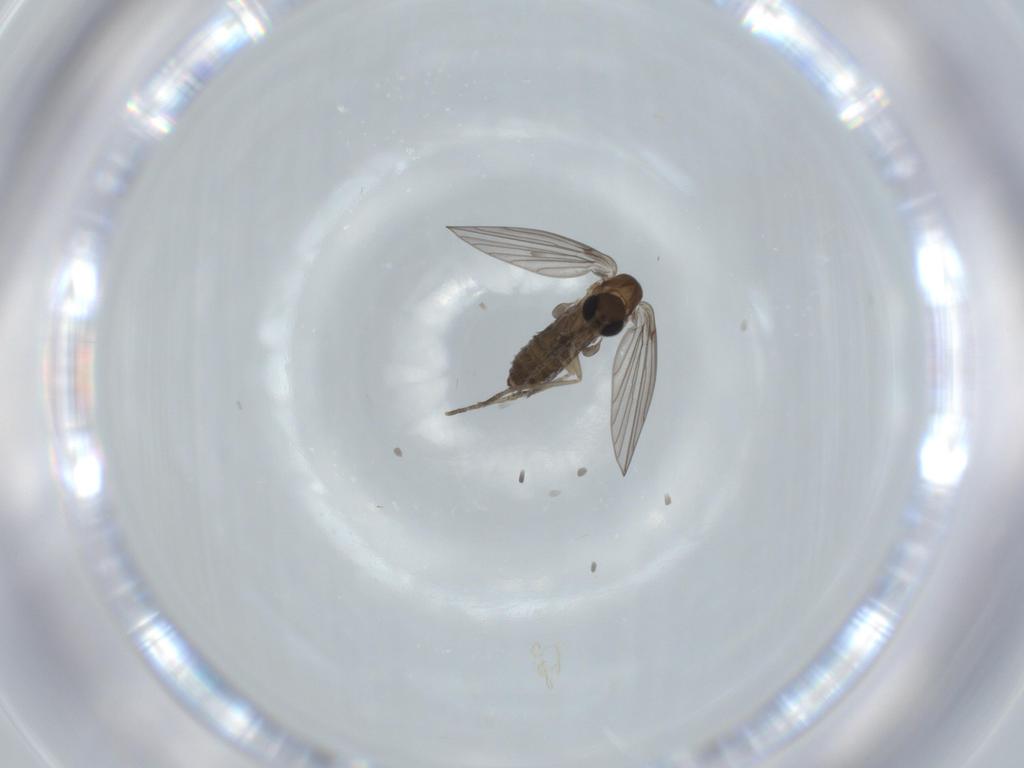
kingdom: Animalia
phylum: Arthropoda
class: Insecta
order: Diptera
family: Psychodidae
